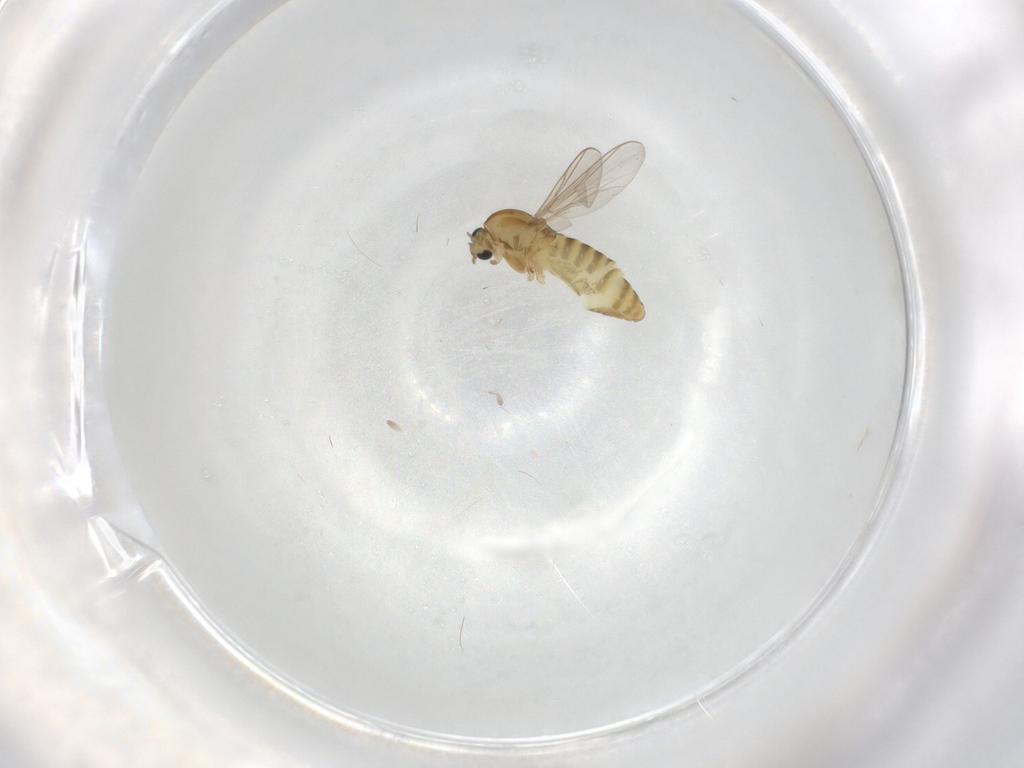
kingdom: Animalia
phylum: Arthropoda
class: Insecta
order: Diptera
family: Chironomidae
